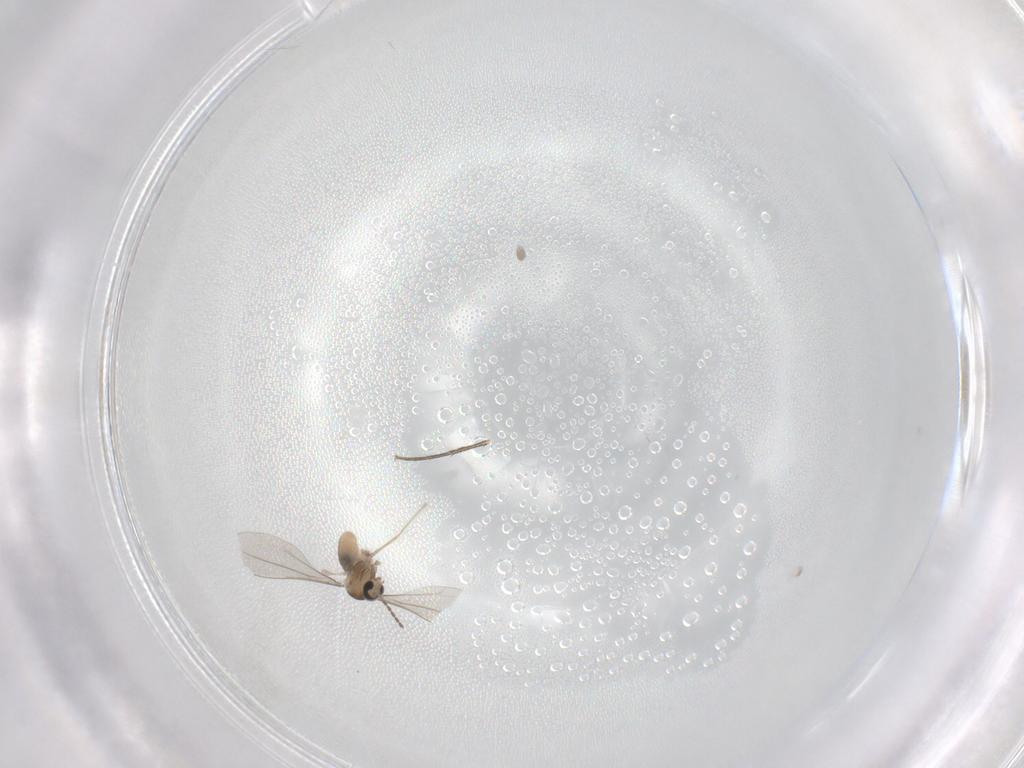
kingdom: Animalia
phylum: Arthropoda
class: Insecta
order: Diptera
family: Phoridae
